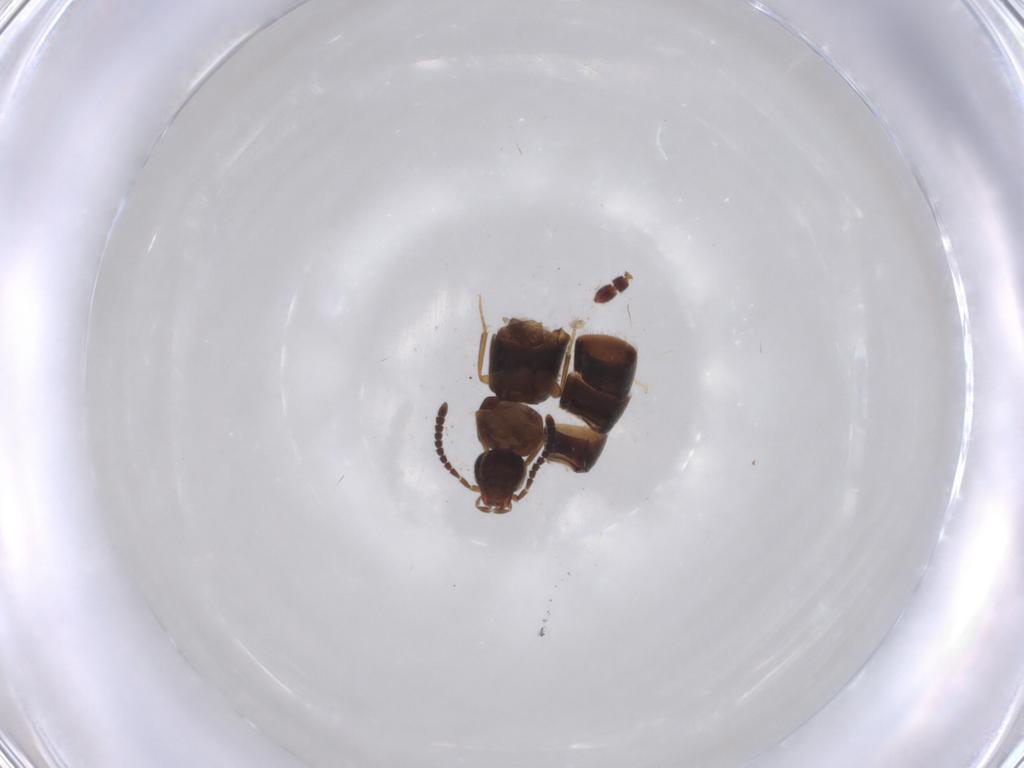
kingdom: Animalia
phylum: Arthropoda
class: Insecta
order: Coleoptera
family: Staphylinidae
